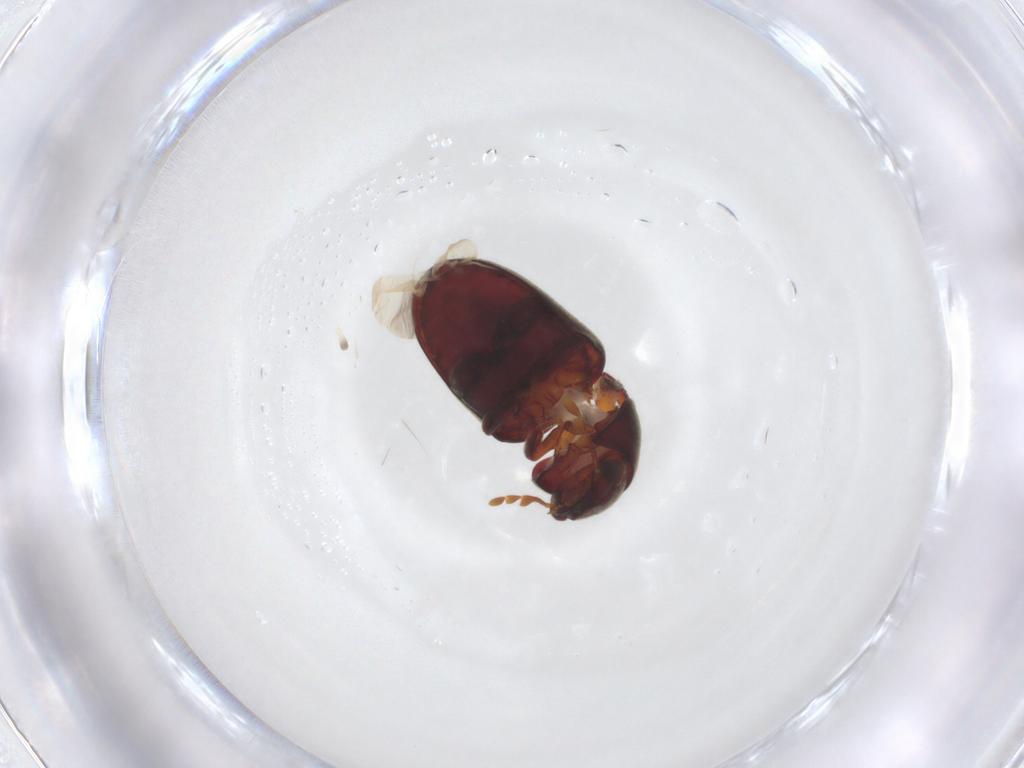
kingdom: Animalia
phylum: Arthropoda
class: Insecta
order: Coleoptera
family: Ptinidae
